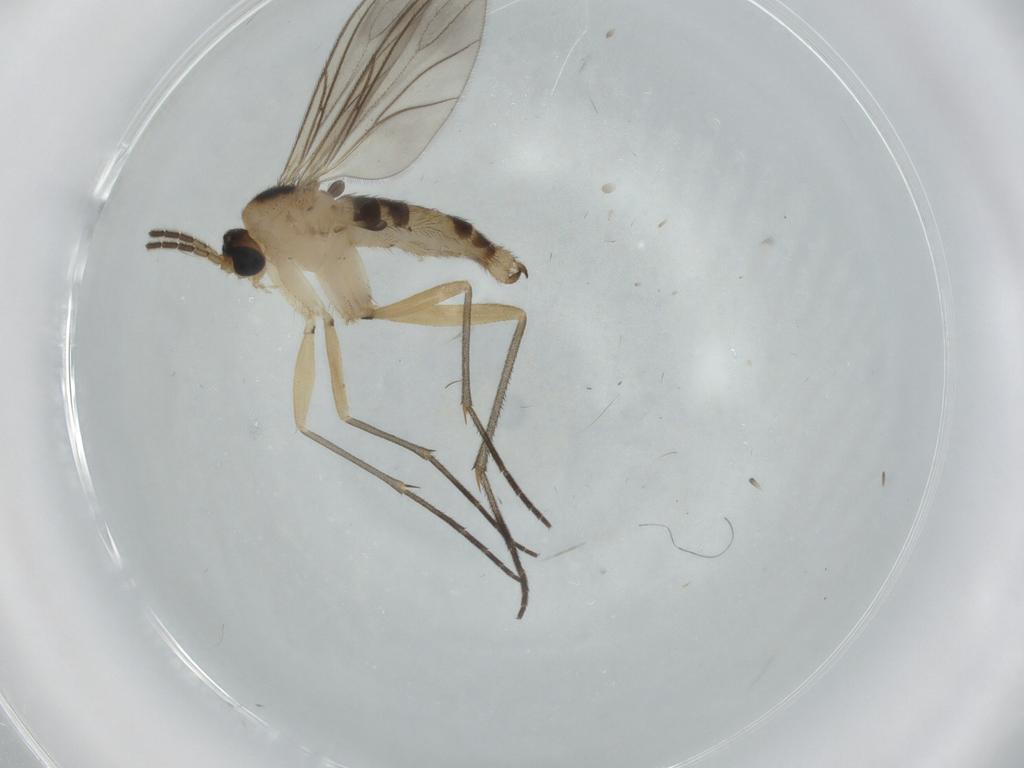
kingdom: Animalia
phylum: Arthropoda
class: Insecta
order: Diptera
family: Sciaridae
